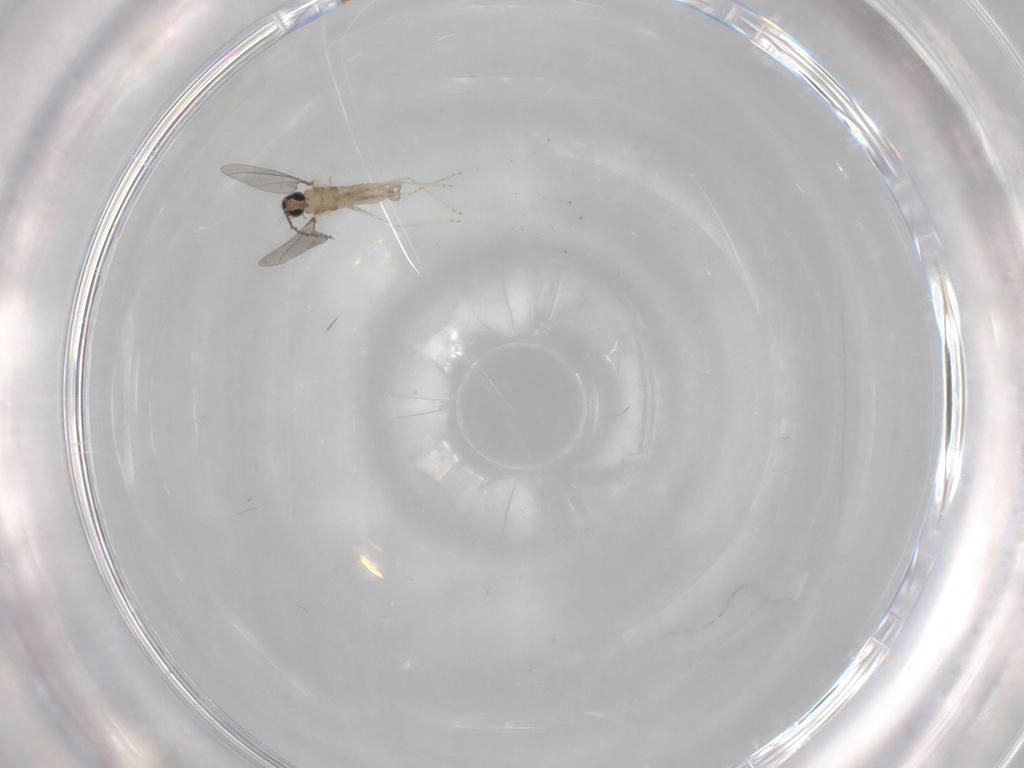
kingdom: Animalia
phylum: Arthropoda
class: Insecta
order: Diptera
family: Cecidomyiidae
